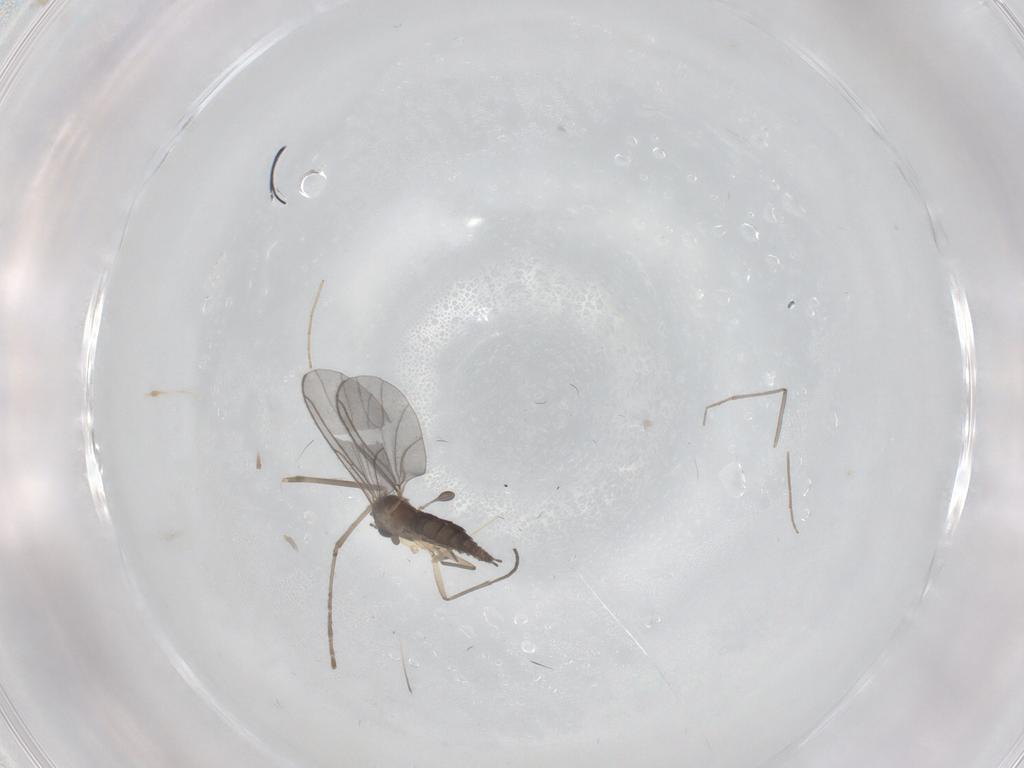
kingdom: Animalia
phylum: Arthropoda
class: Insecta
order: Diptera
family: Sciaridae
